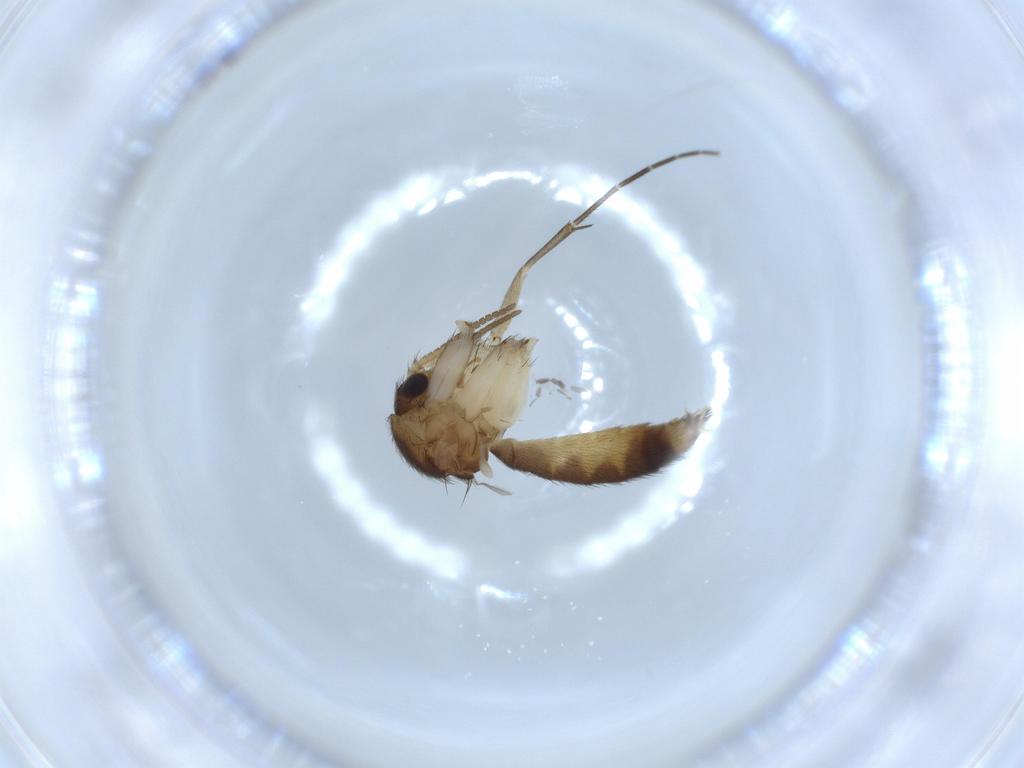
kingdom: Animalia
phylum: Arthropoda
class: Insecta
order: Diptera
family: Mycetophilidae
